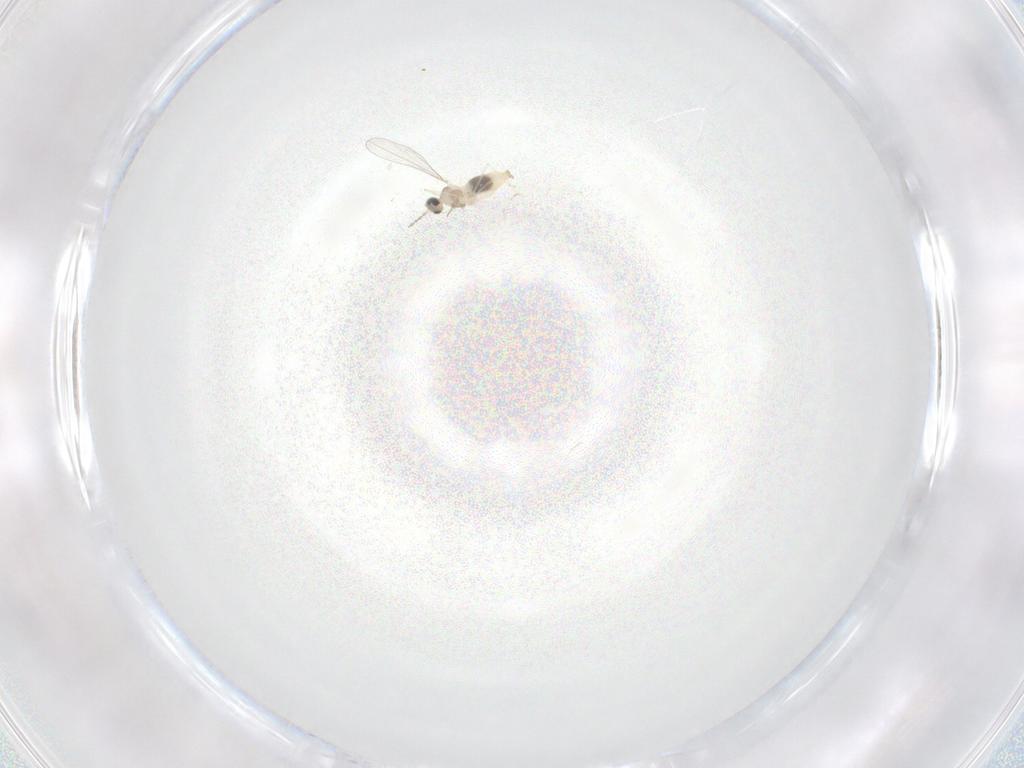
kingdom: Animalia
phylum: Arthropoda
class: Insecta
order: Diptera
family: Cecidomyiidae
